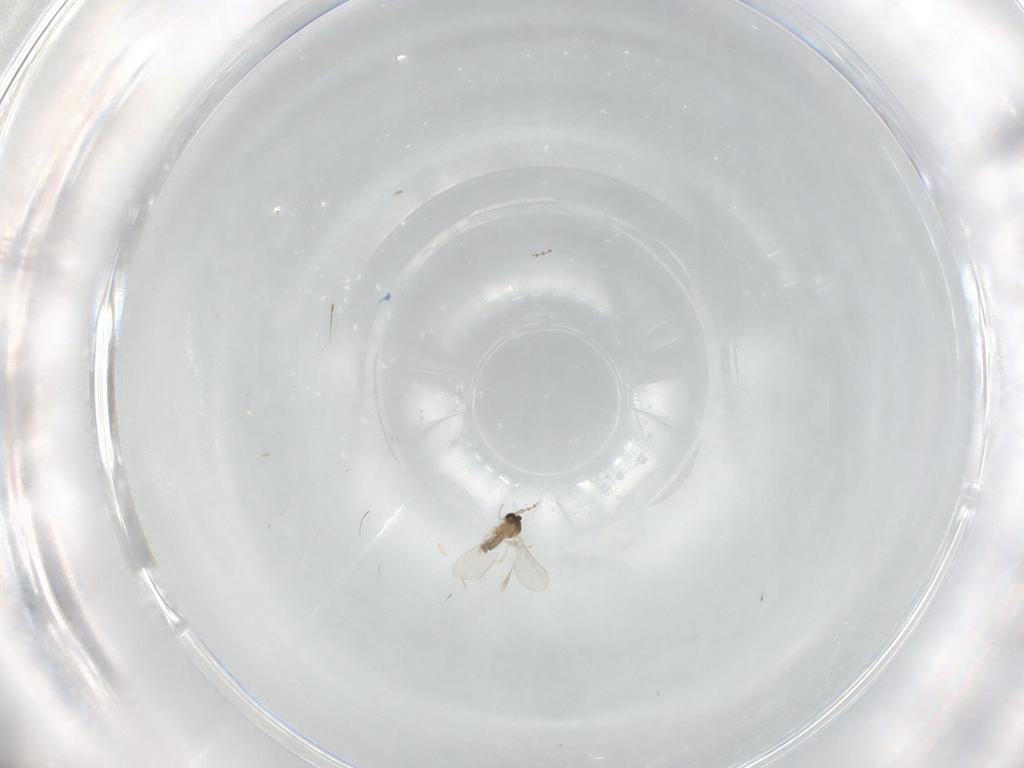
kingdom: Animalia
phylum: Arthropoda
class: Insecta
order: Diptera
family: Cecidomyiidae
